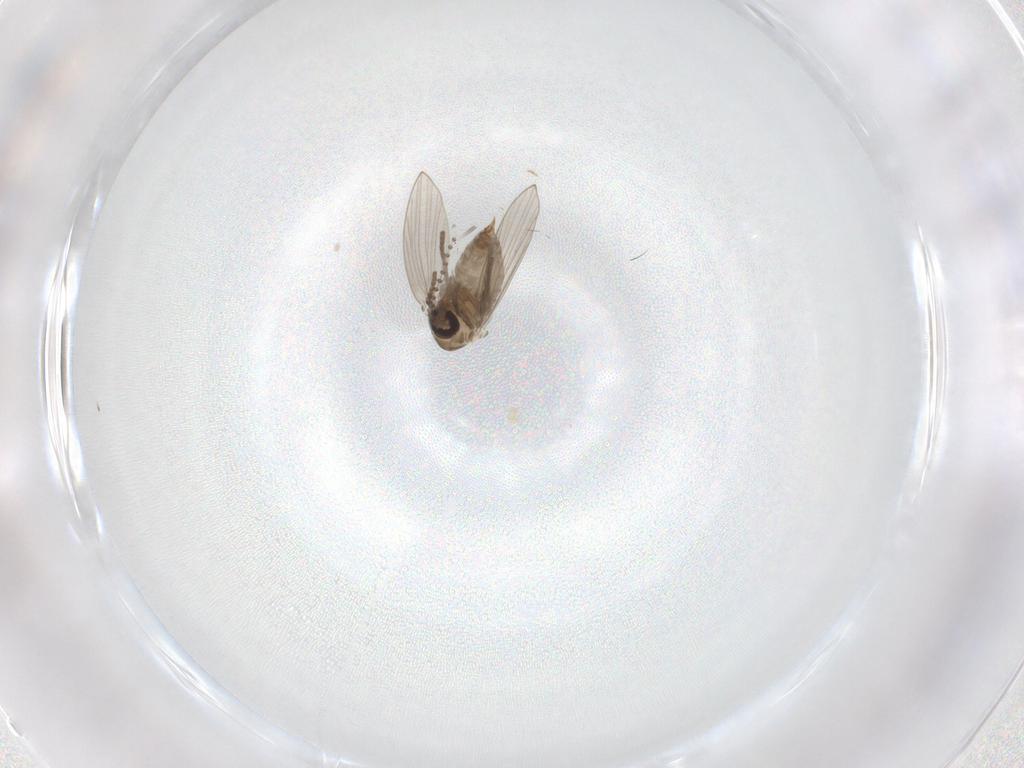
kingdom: Animalia
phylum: Arthropoda
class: Insecta
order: Diptera
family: Psychodidae
